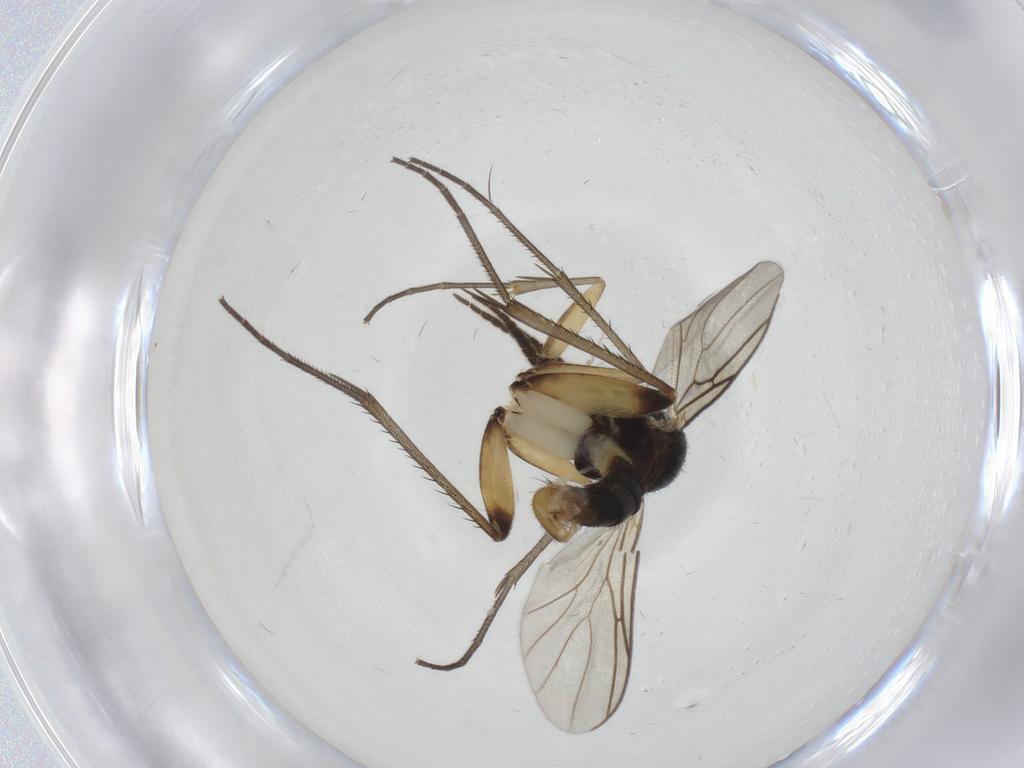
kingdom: Animalia
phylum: Arthropoda
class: Insecta
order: Diptera
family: Mycetophilidae
